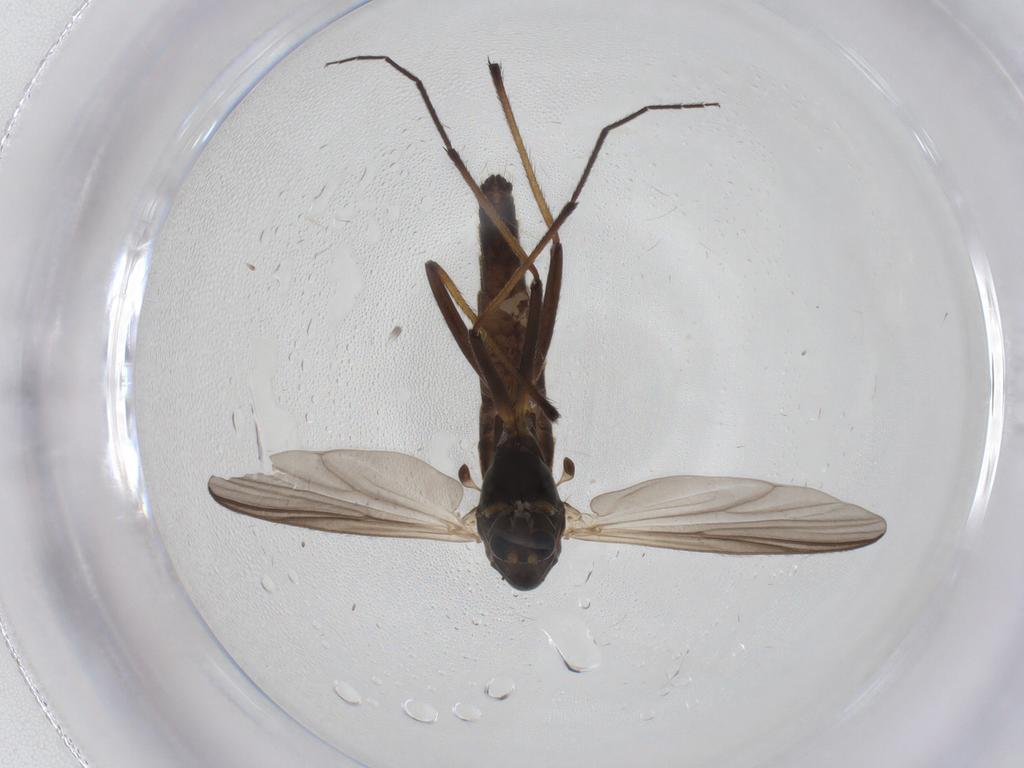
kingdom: Animalia
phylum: Arthropoda
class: Insecta
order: Diptera
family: Chironomidae
